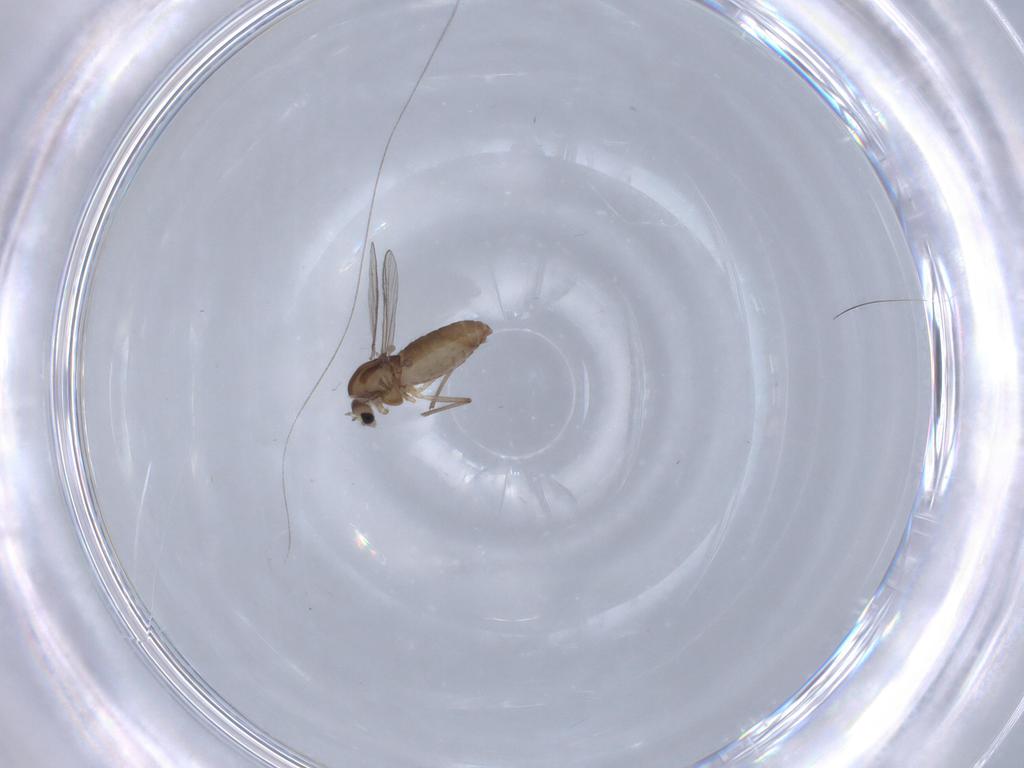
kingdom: Animalia
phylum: Arthropoda
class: Insecta
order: Diptera
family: Chironomidae
